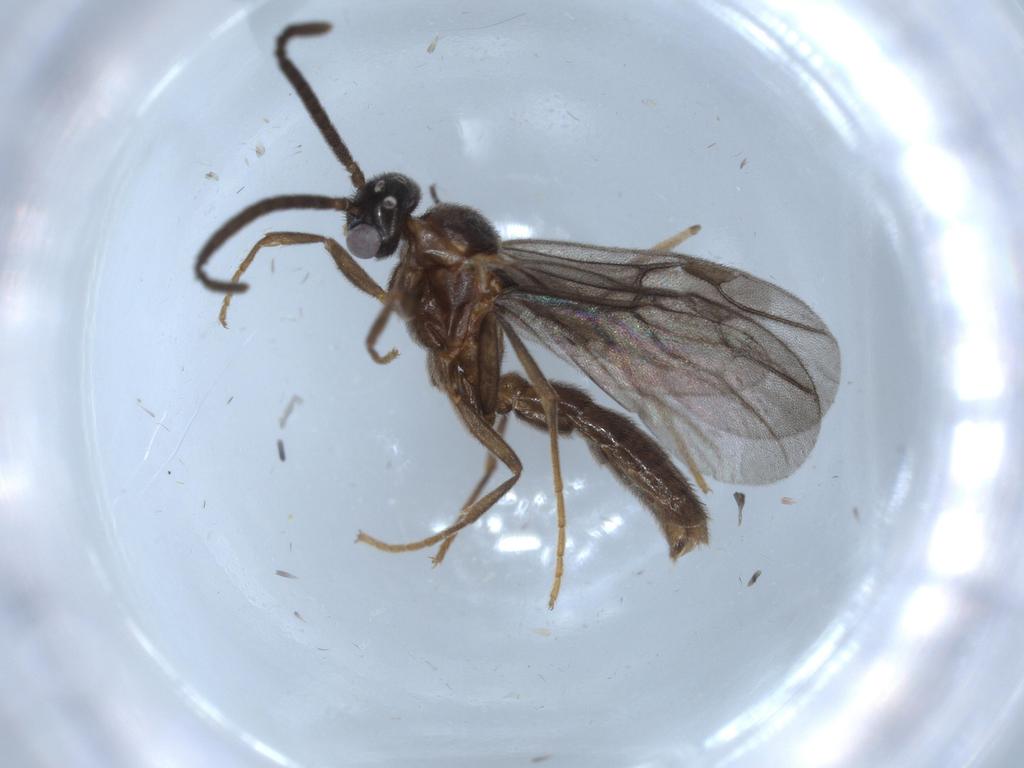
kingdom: Animalia
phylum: Arthropoda
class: Insecta
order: Hymenoptera
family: Formicidae
